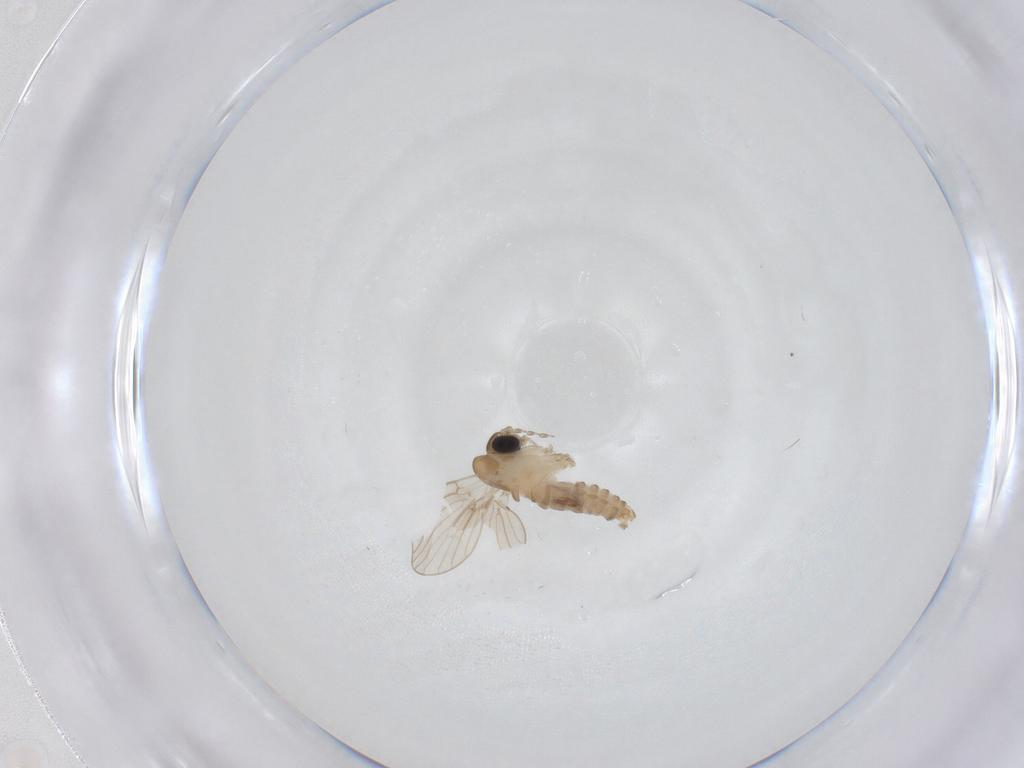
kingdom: Animalia
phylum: Arthropoda
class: Insecta
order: Diptera
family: Cecidomyiidae
